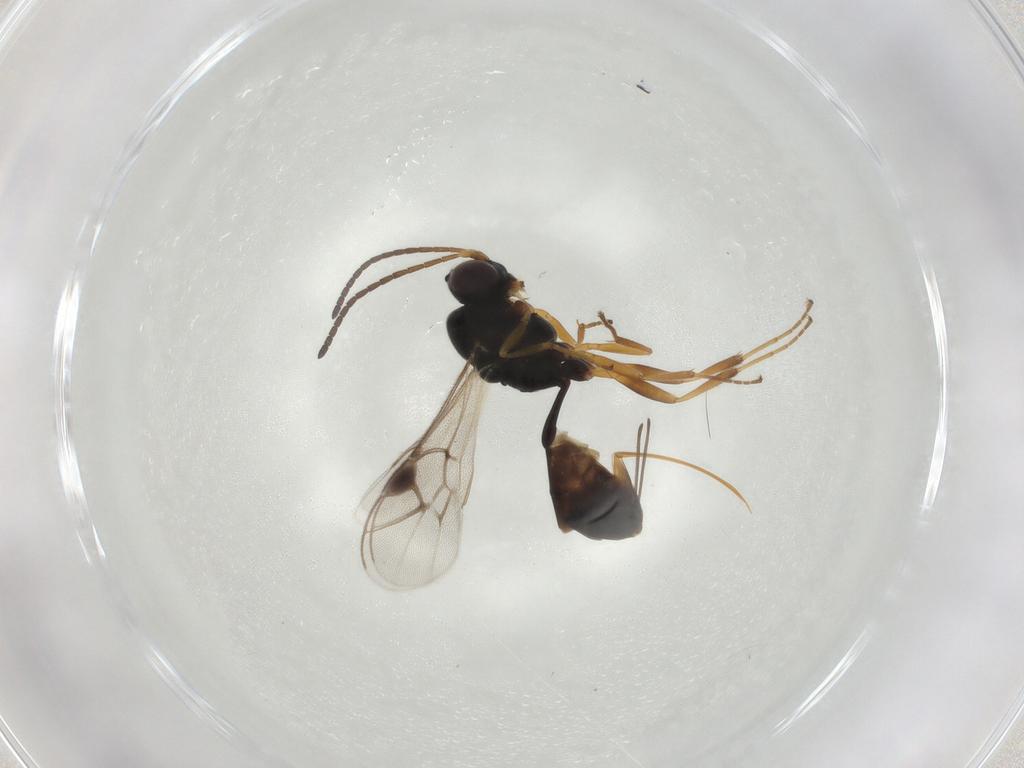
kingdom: Animalia
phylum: Arthropoda
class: Insecta
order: Hymenoptera
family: Ichneumonidae
